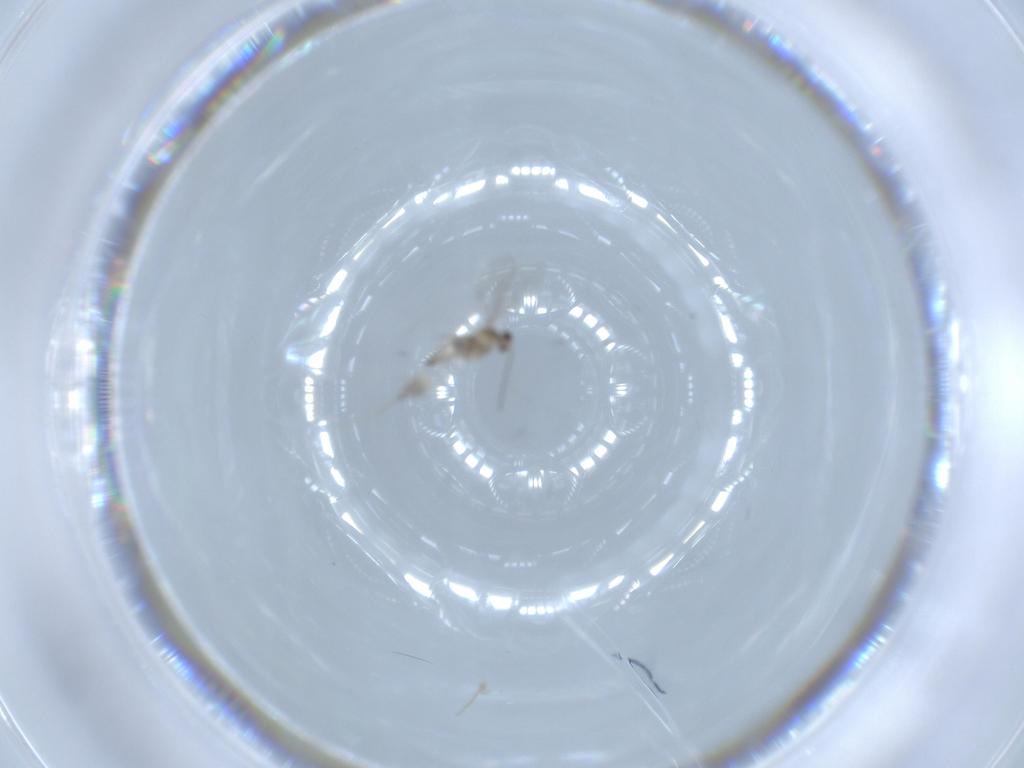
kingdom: Animalia
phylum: Arthropoda
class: Insecta
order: Diptera
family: Cecidomyiidae
